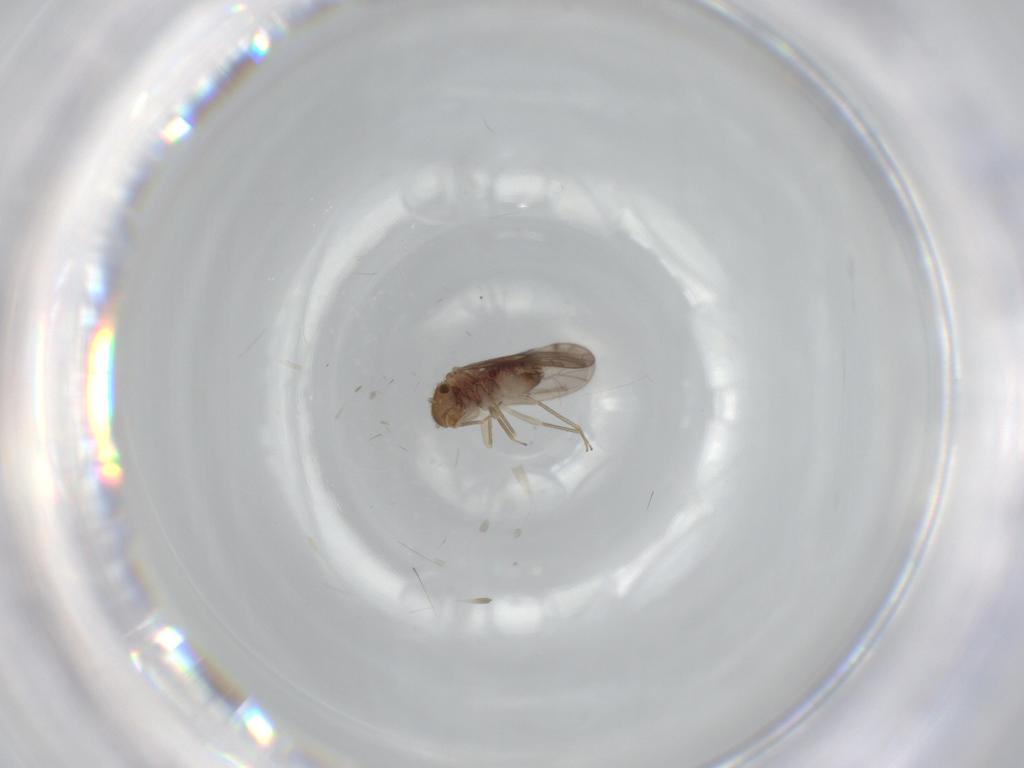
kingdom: Animalia
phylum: Arthropoda
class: Insecta
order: Psocodea
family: Ectopsocidae
